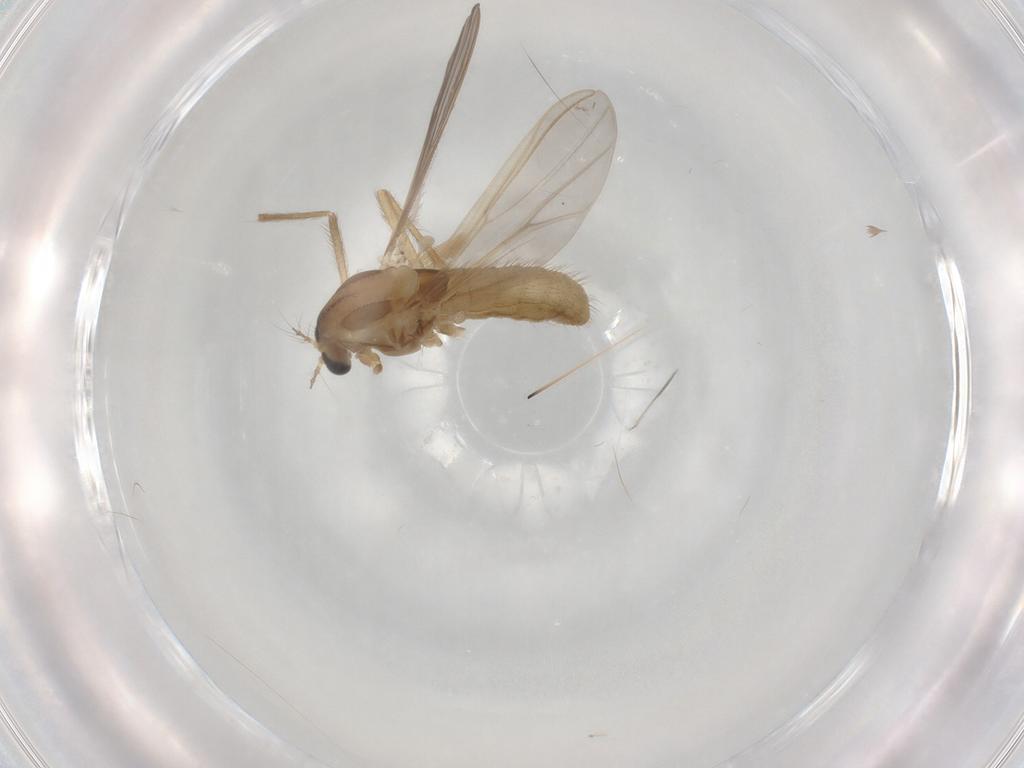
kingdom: Animalia
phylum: Arthropoda
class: Insecta
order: Diptera
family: Chironomidae
